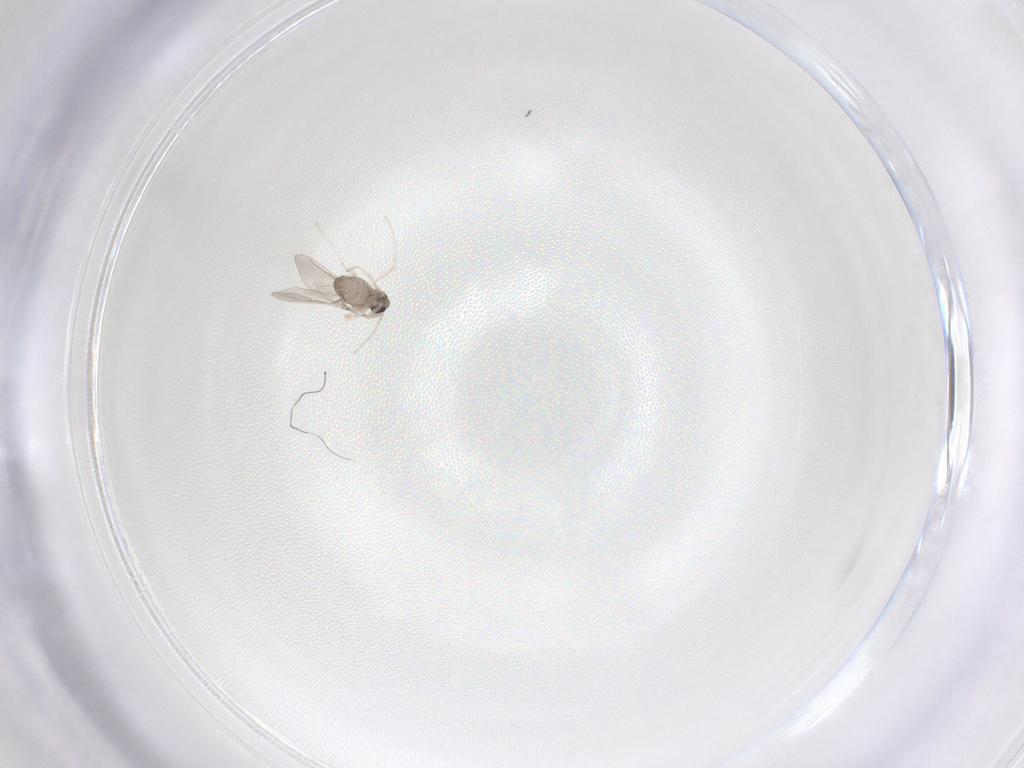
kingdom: Animalia
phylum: Arthropoda
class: Insecta
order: Diptera
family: Cecidomyiidae
